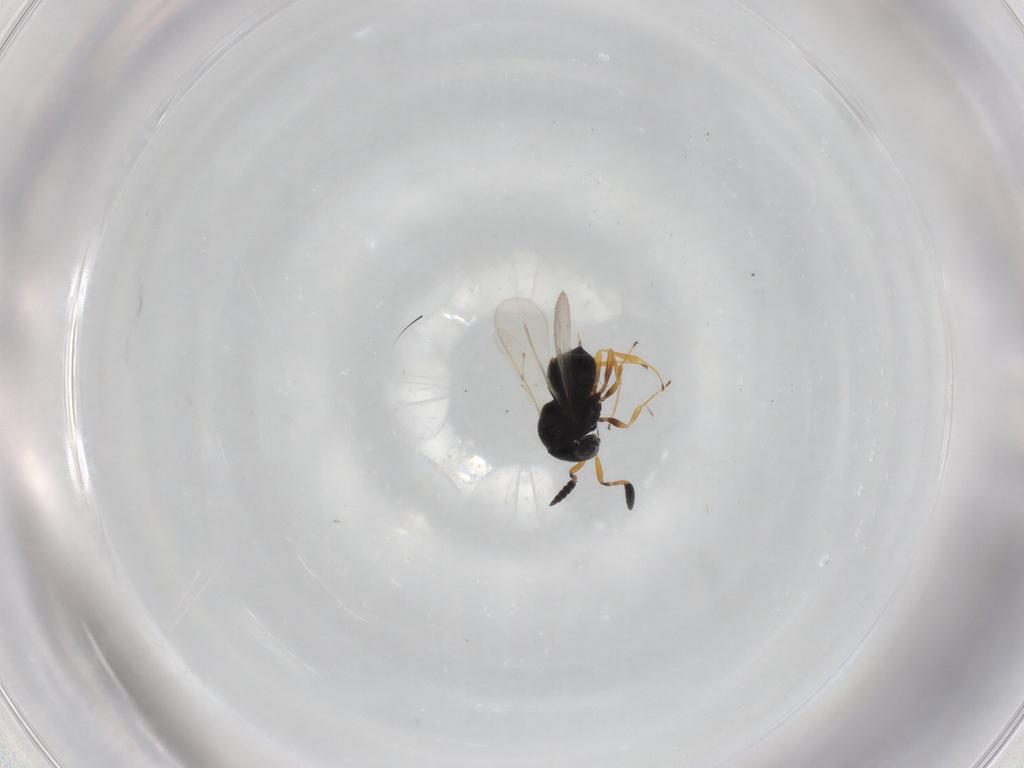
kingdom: Animalia
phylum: Arthropoda
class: Insecta
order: Hymenoptera
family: Scelionidae
